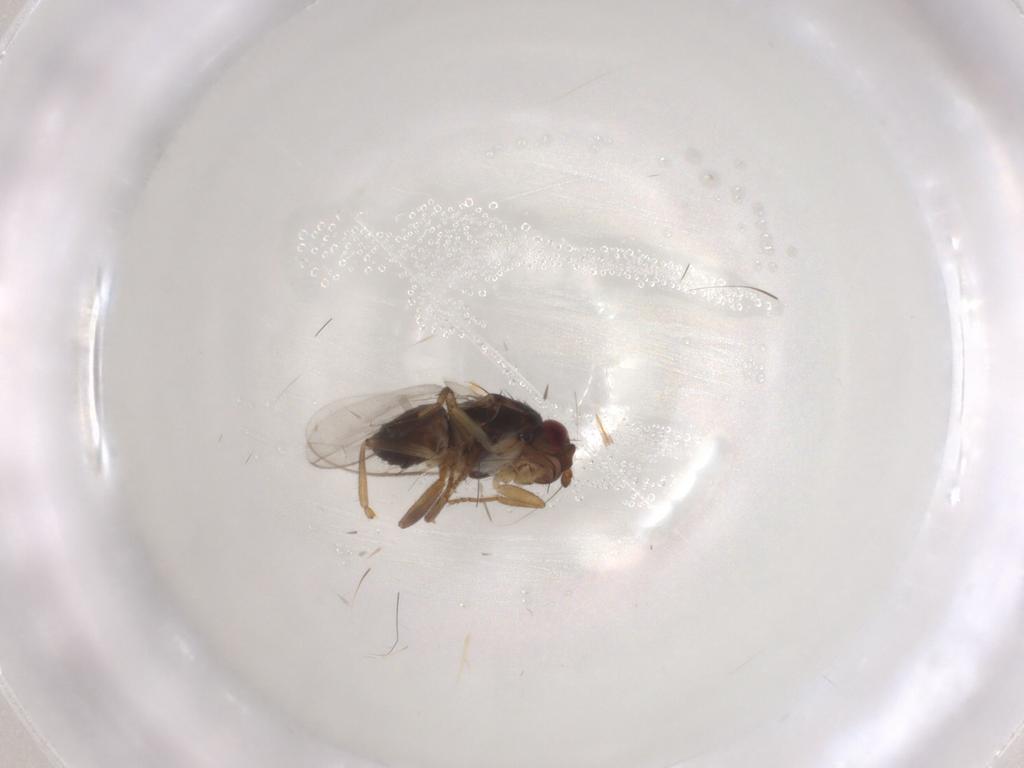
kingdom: Animalia
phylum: Arthropoda
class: Insecta
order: Diptera
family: Sphaeroceridae
